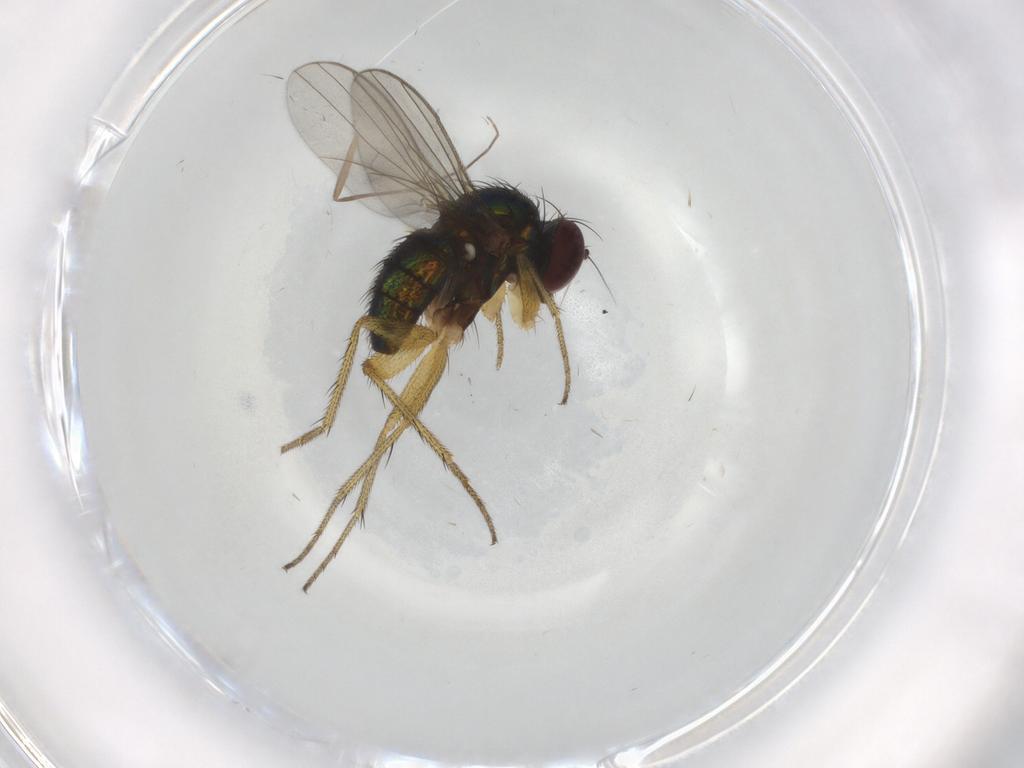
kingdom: Animalia
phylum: Arthropoda
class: Insecta
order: Diptera
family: Chironomidae
